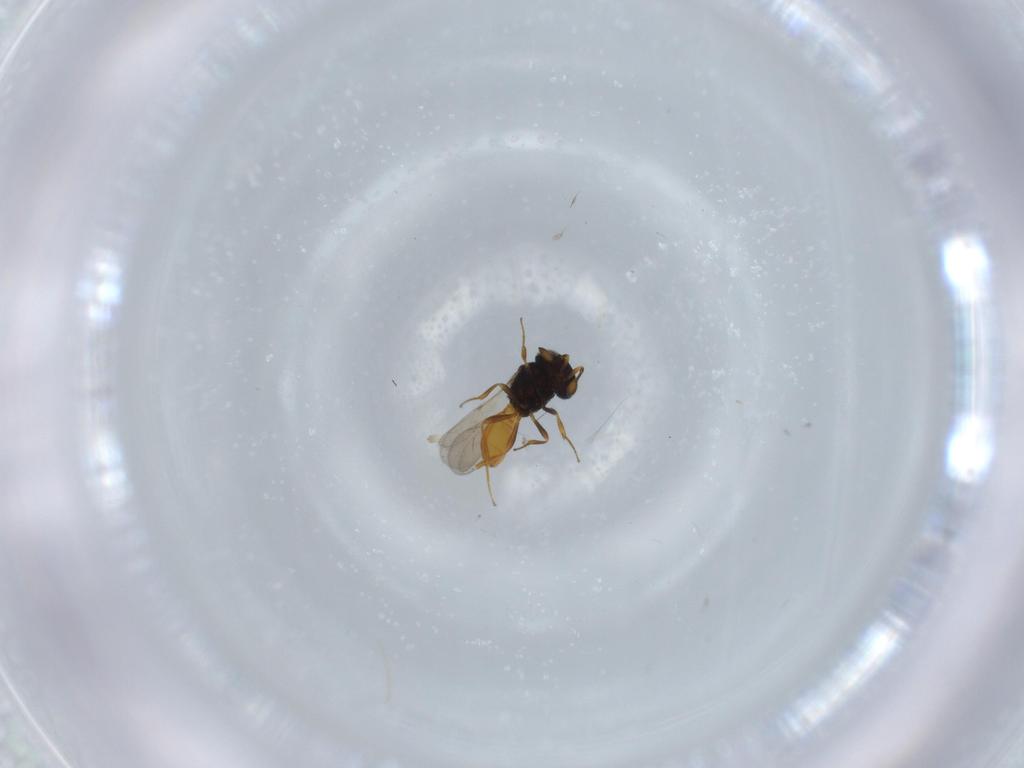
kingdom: Animalia
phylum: Arthropoda
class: Insecta
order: Hymenoptera
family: Scelionidae
